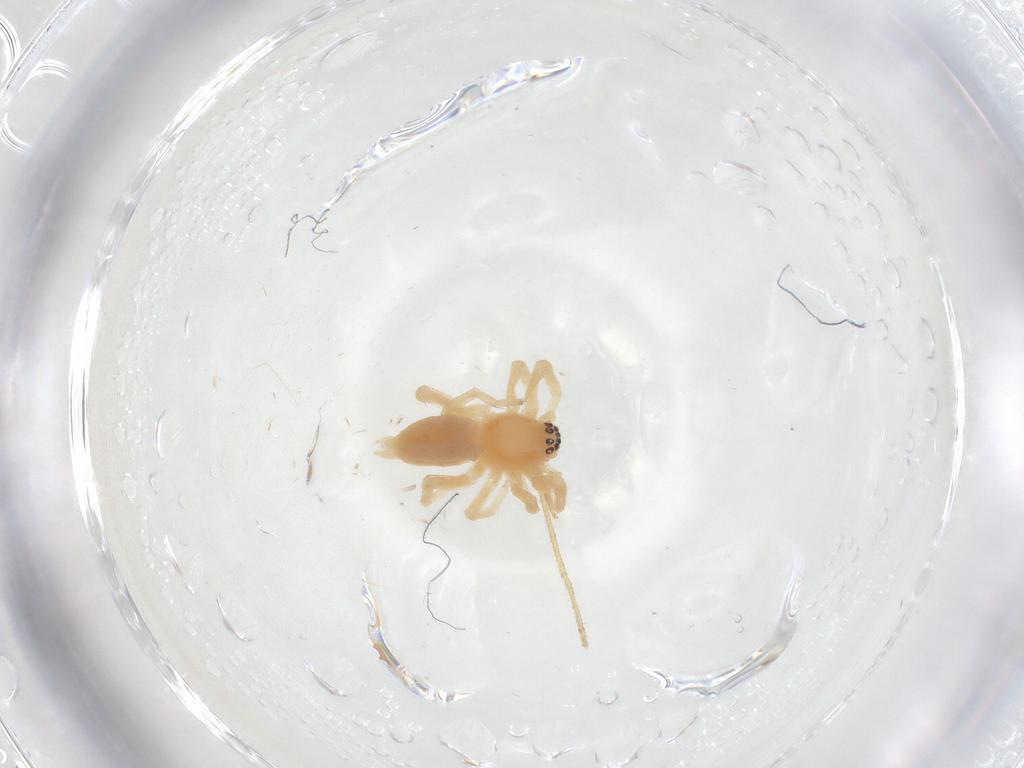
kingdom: Animalia
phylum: Arthropoda
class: Arachnida
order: Araneae
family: Anyphaenidae
